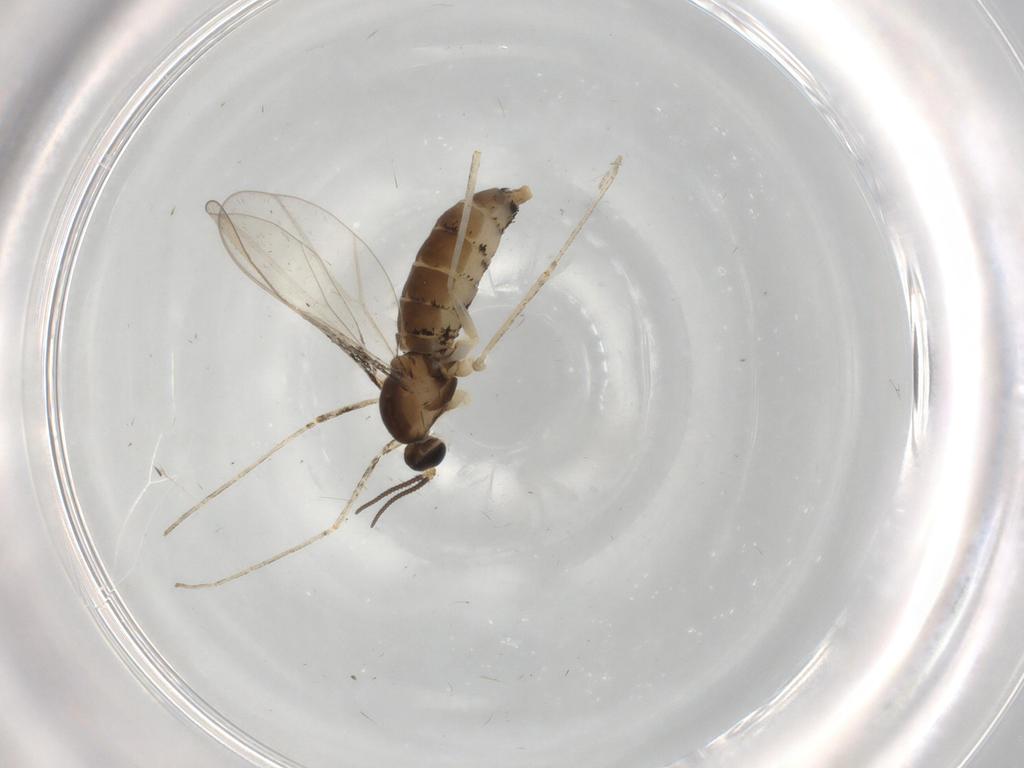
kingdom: Animalia
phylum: Arthropoda
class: Insecta
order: Diptera
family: Cecidomyiidae
